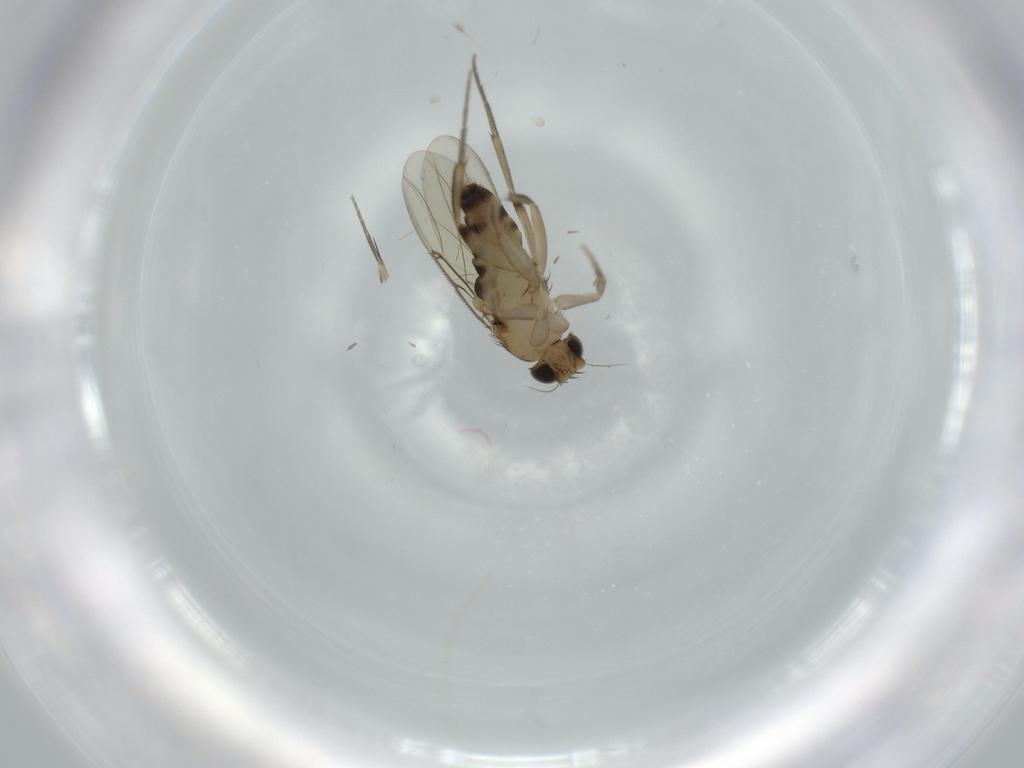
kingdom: Animalia
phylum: Arthropoda
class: Insecta
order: Diptera
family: Phoridae
